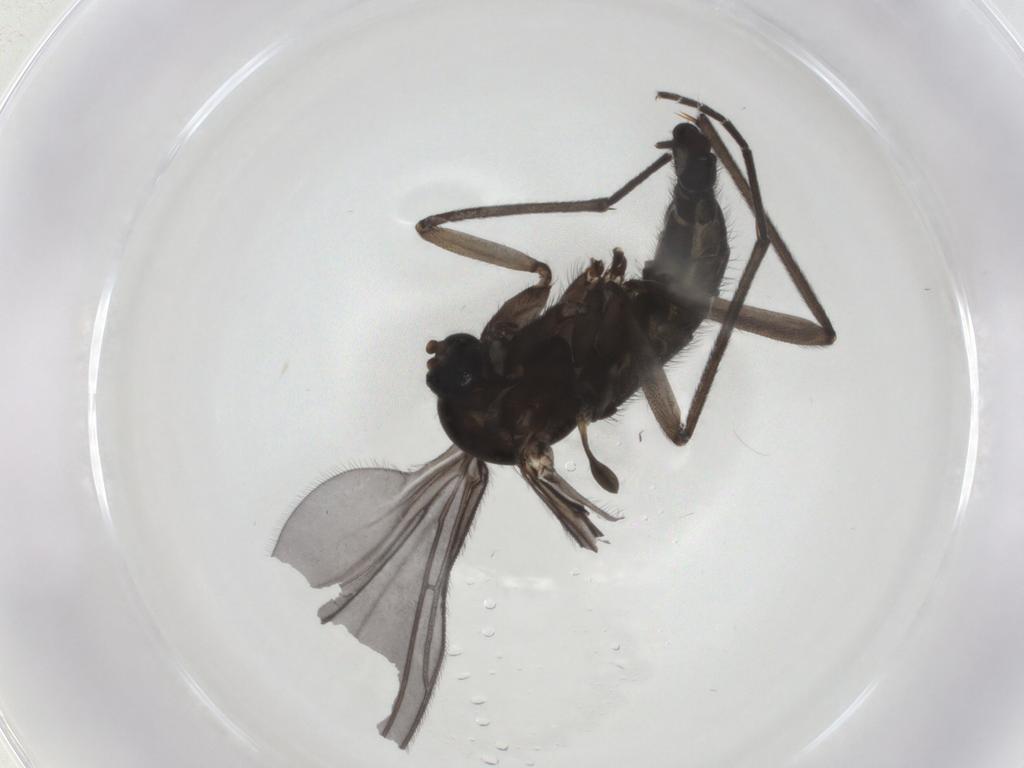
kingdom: Animalia
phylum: Arthropoda
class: Insecta
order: Diptera
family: Sciaridae
